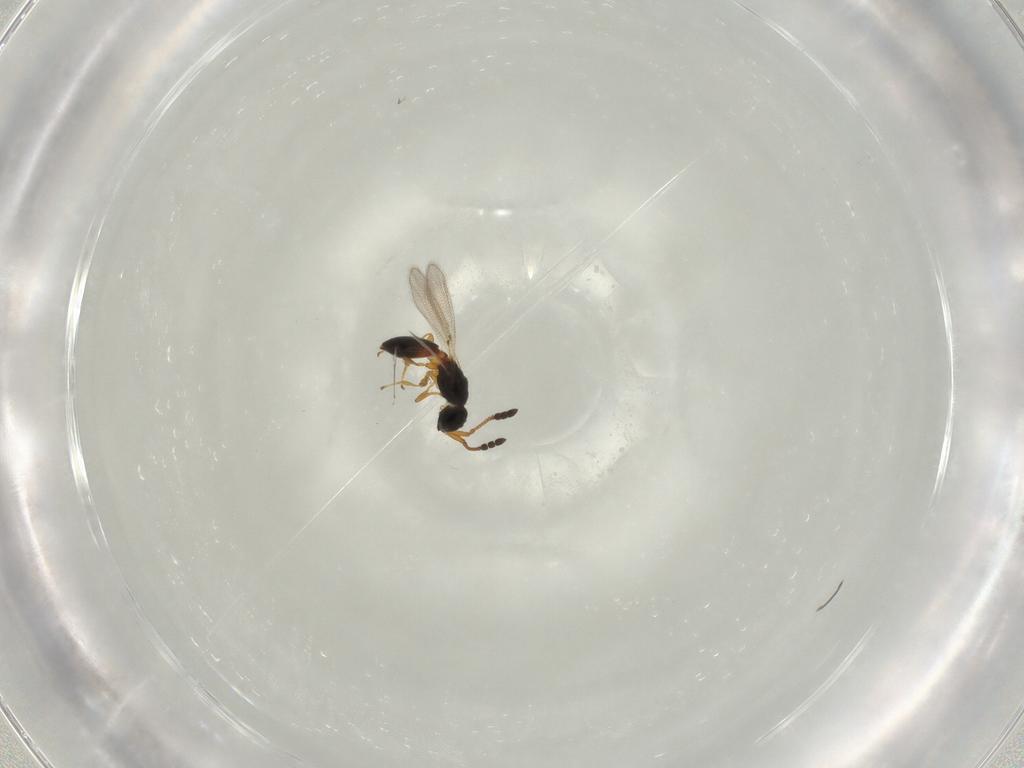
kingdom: Animalia
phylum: Arthropoda
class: Insecta
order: Hymenoptera
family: Diapriidae
